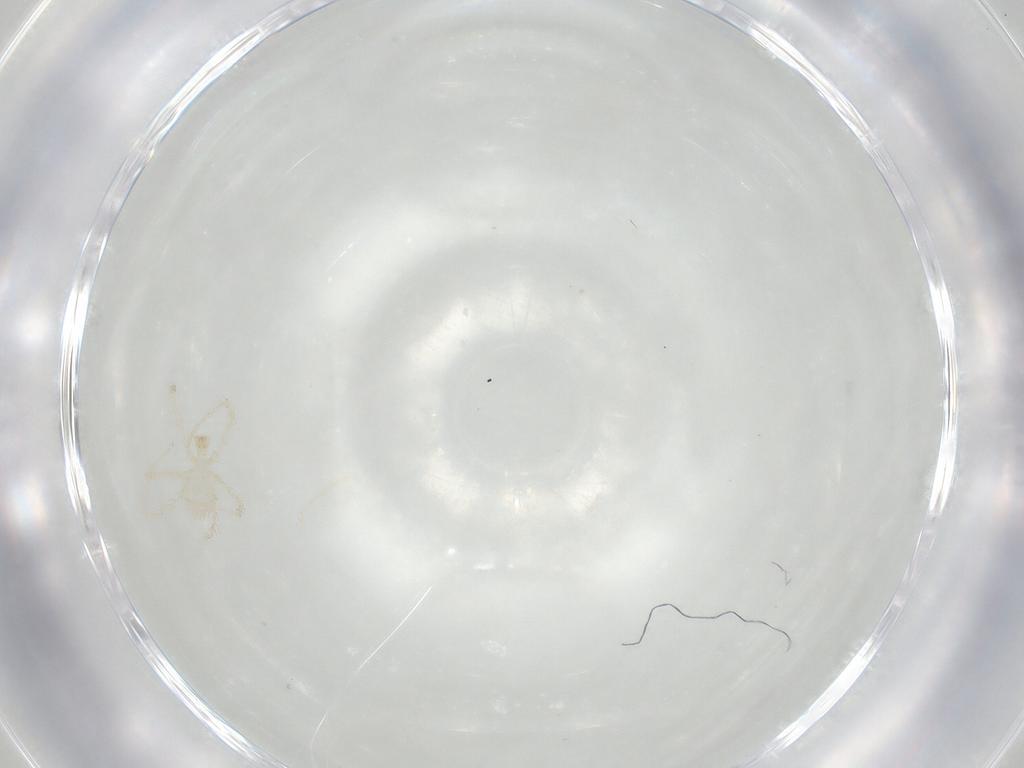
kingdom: Animalia
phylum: Arthropoda
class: Arachnida
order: Trombidiformes
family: Erythraeidae
